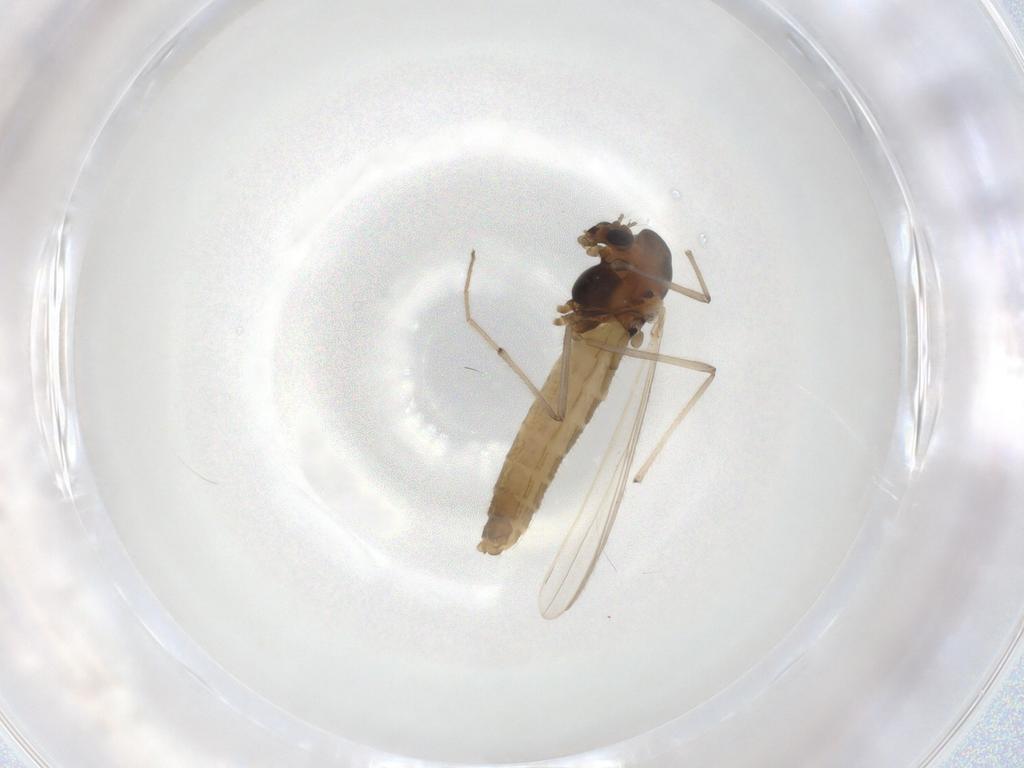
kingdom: Animalia
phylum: Arthropoda
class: Insecta
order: Diptera
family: Chironomidae
